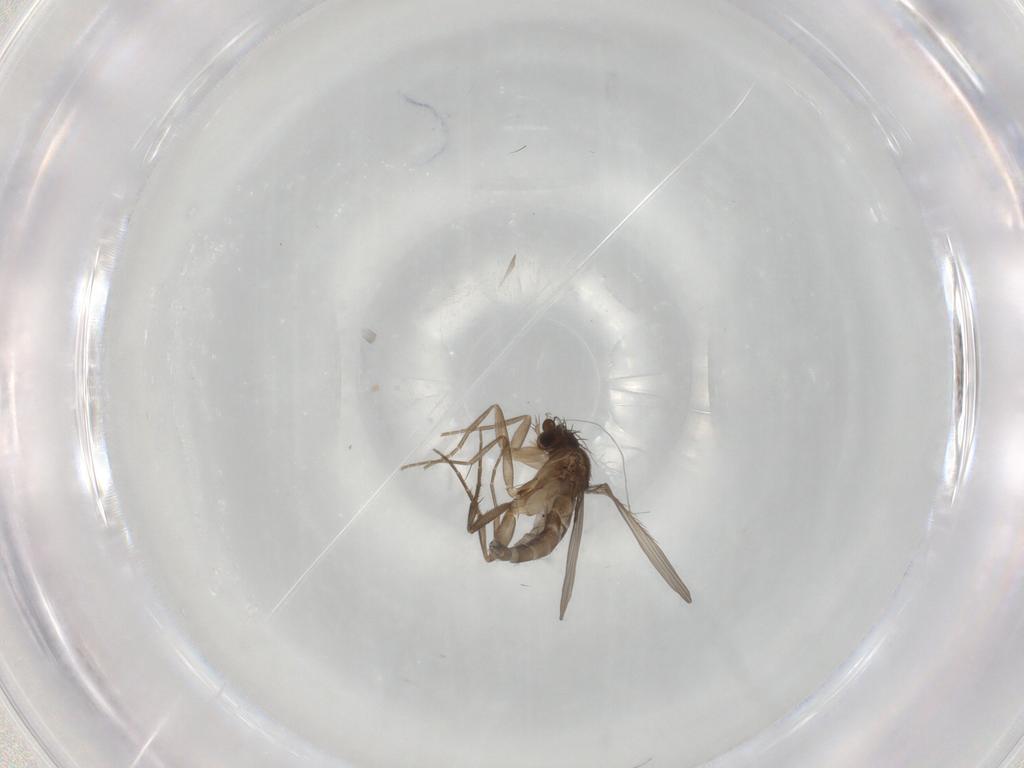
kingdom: Animalia
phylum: Arthropoda
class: Insecta
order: Diptera
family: Phoridae
